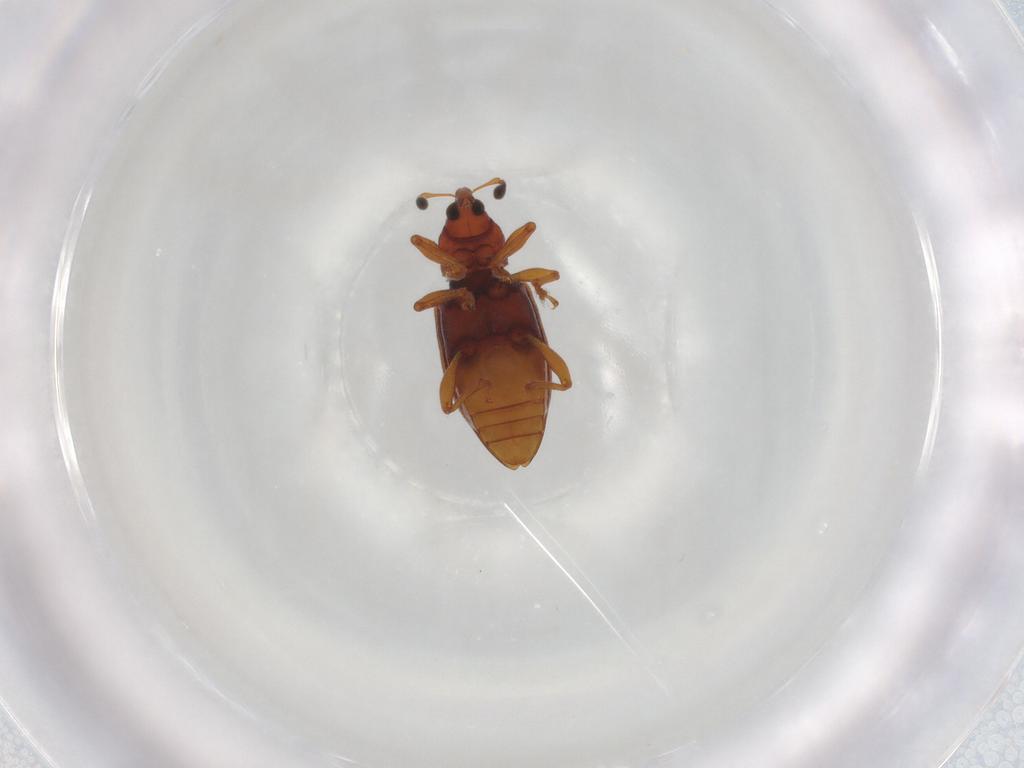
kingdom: Animalia
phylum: Arthropoda
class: Insecta
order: Coleoptera
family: Curculionidae
